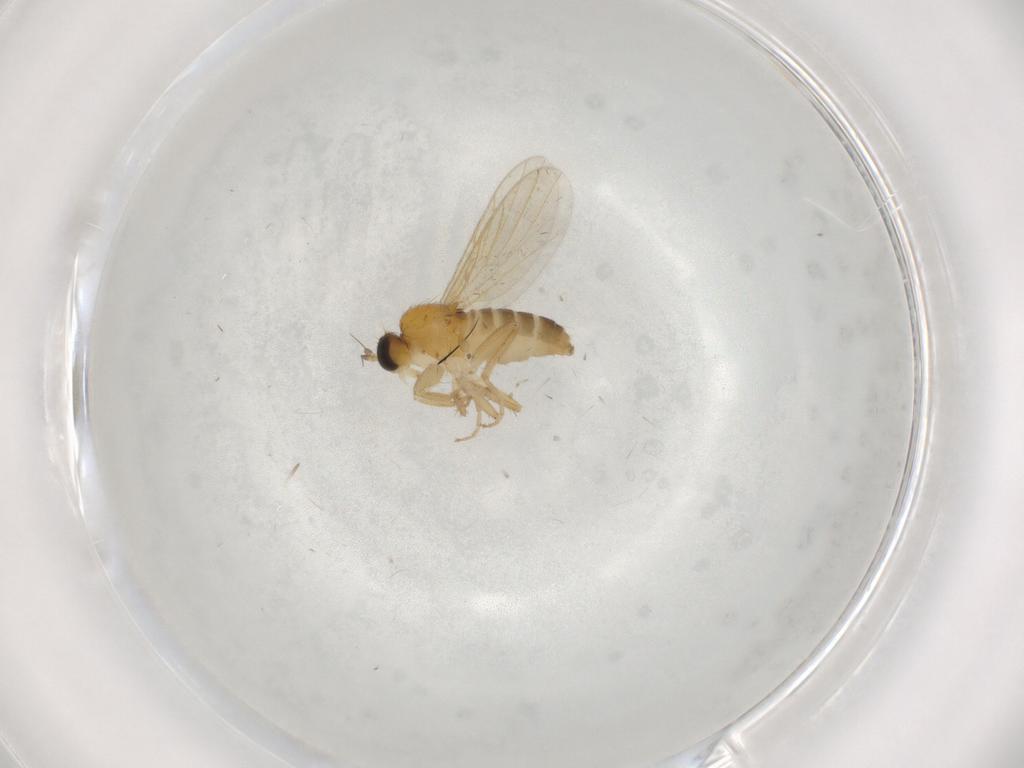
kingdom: Animalia
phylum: Arthropoda
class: Insecta
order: Diptera
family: Hybotidae
